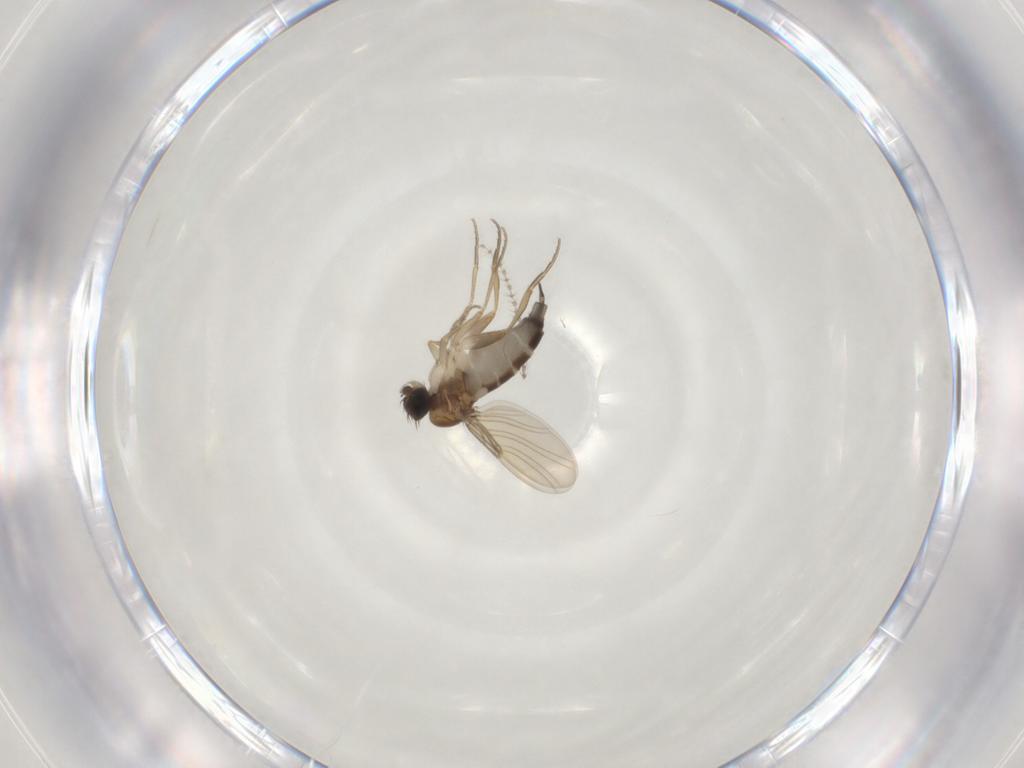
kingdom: Animalia
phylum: Arthropoda
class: Insecta
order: Diptera
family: Phoridae
